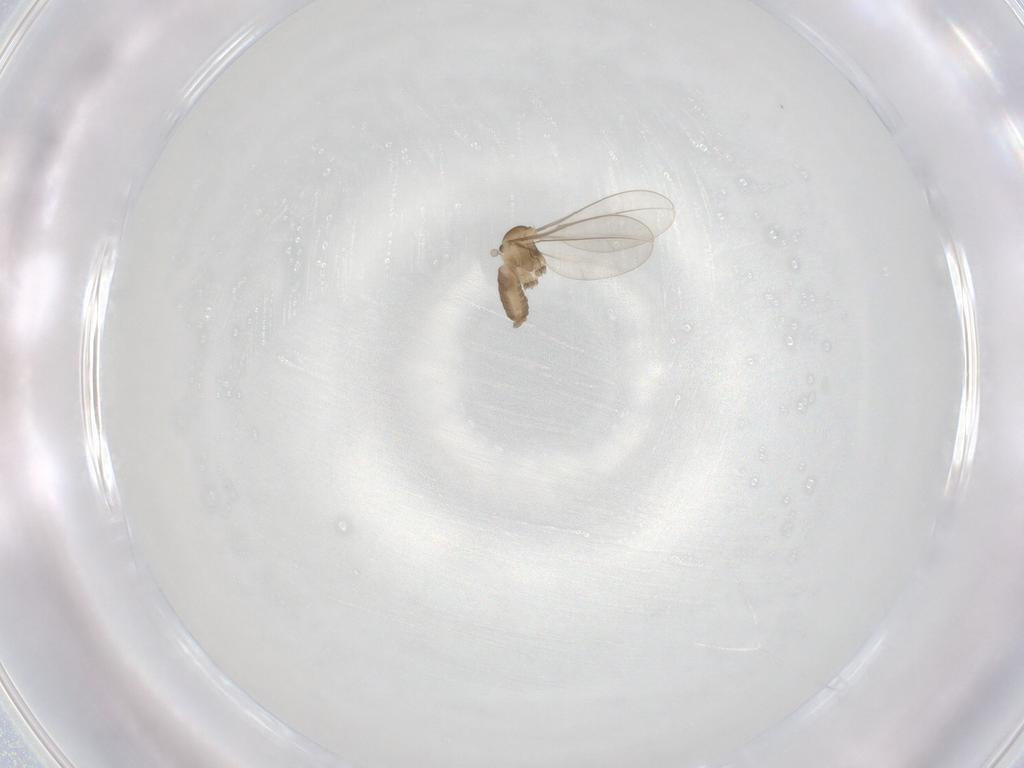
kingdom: Animalia
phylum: Arthropoda
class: Insecta
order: Diptera
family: Cecidomyiidae
